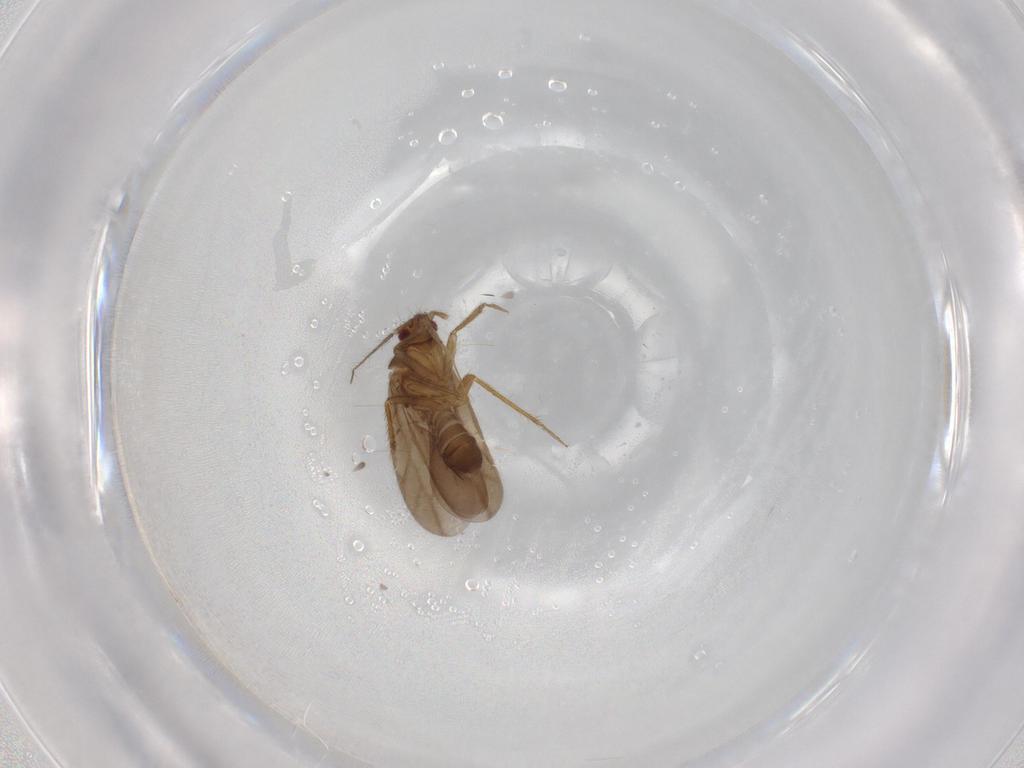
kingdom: Animalia
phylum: Arthropoda
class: Insecta
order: Hemiptera
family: Ceratocombidae
